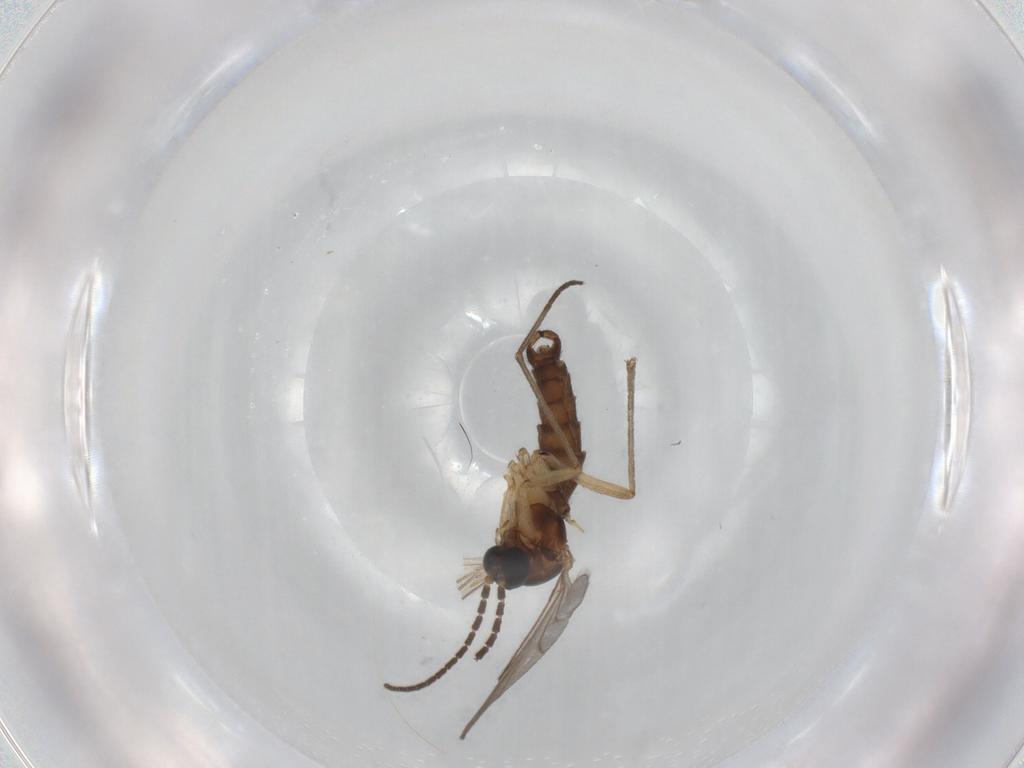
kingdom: Animalia
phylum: Arthropoda
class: Insecta
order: Diptera
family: Sciaridae
